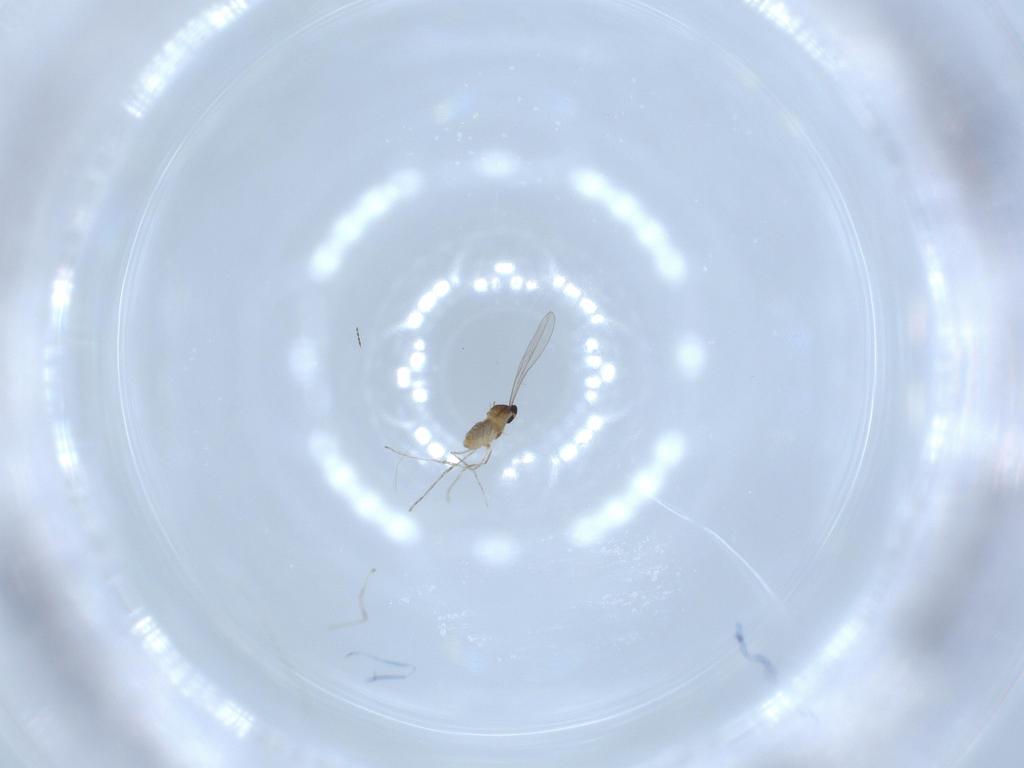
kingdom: Animalia
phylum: Arthropoda
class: Insecta
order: Diptera
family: Cecidomyiidae
